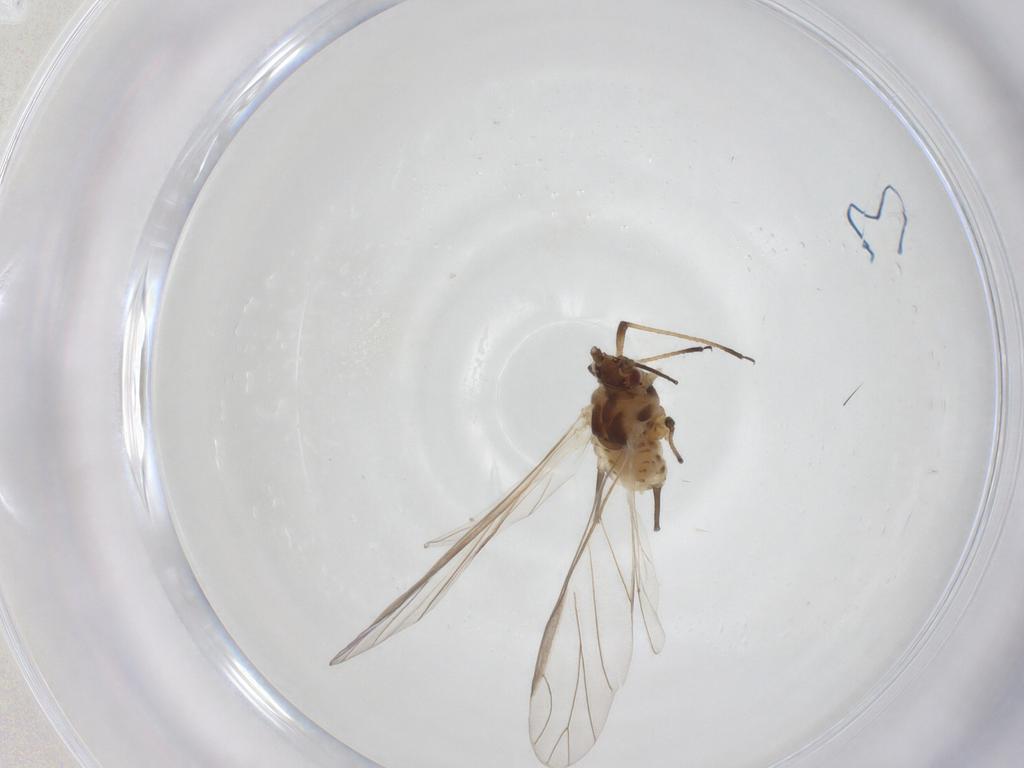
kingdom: Animalia
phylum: Arthropoda
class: Insecta
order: Hemiptera
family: Aphididae
